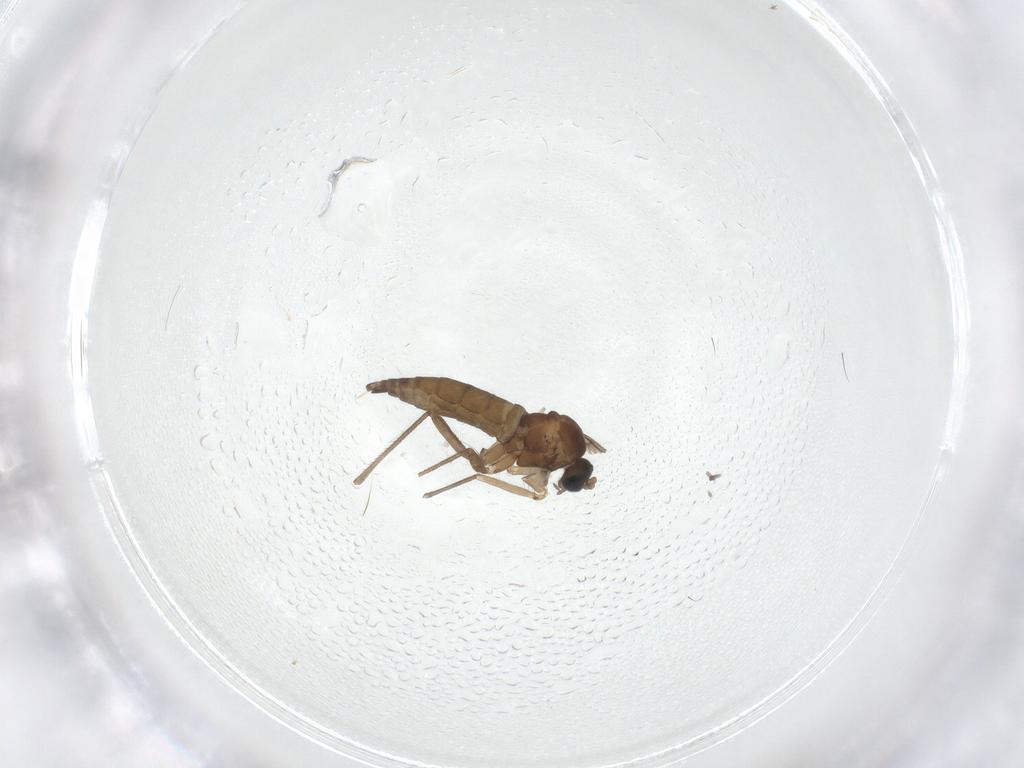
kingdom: Animalia
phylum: Arthropoda
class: Insecta
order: Diptera
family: Sciaridae
